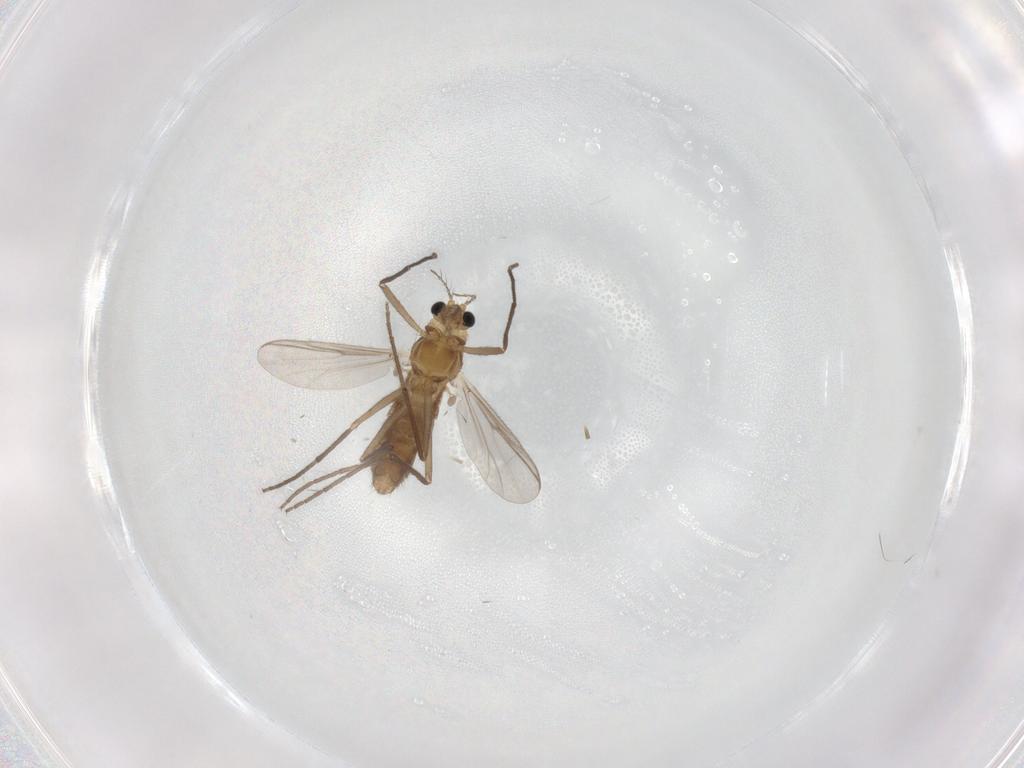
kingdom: Animalia
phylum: Arthropoda
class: Insecta
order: Diptera
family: Chironomidae
